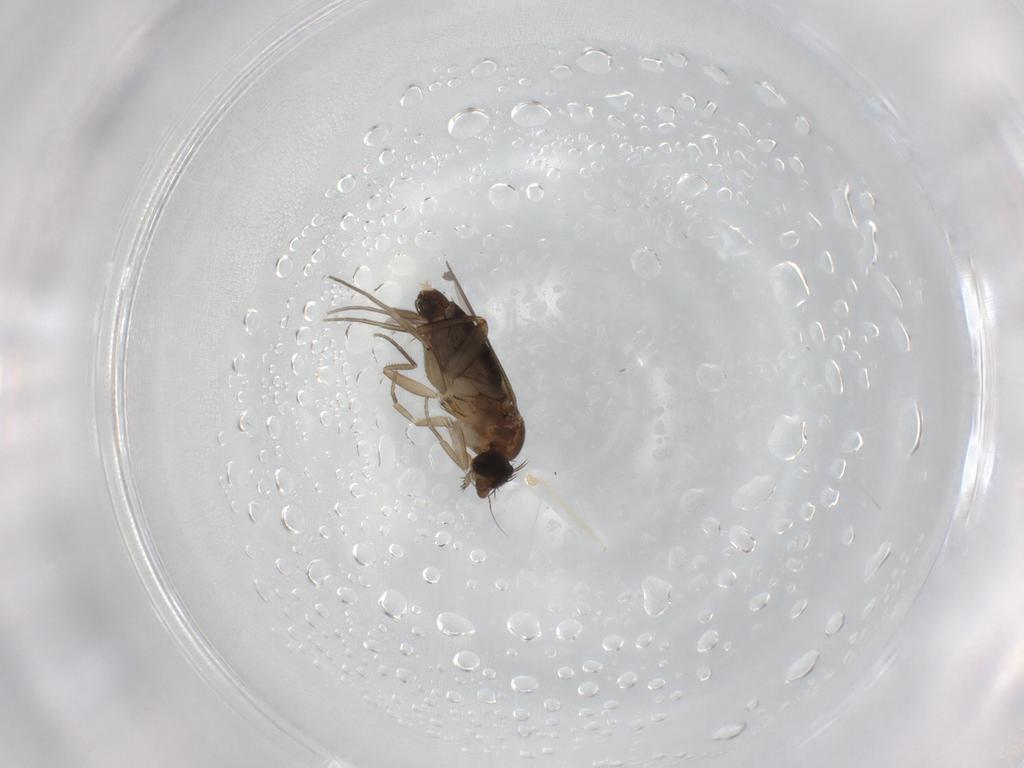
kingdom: Animalia
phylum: Arthropoda
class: Insecta
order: Diptera
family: Phoridae
